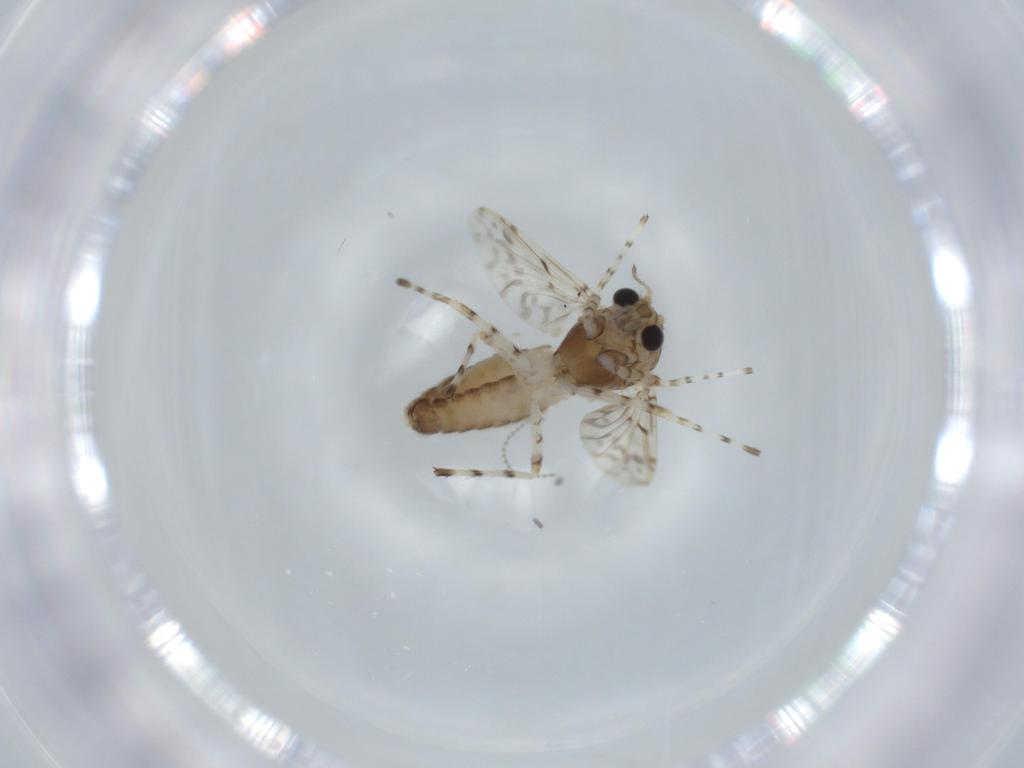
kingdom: Animalia
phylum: Arthropoda
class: Insecta
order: Diptera
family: Chironomidae
